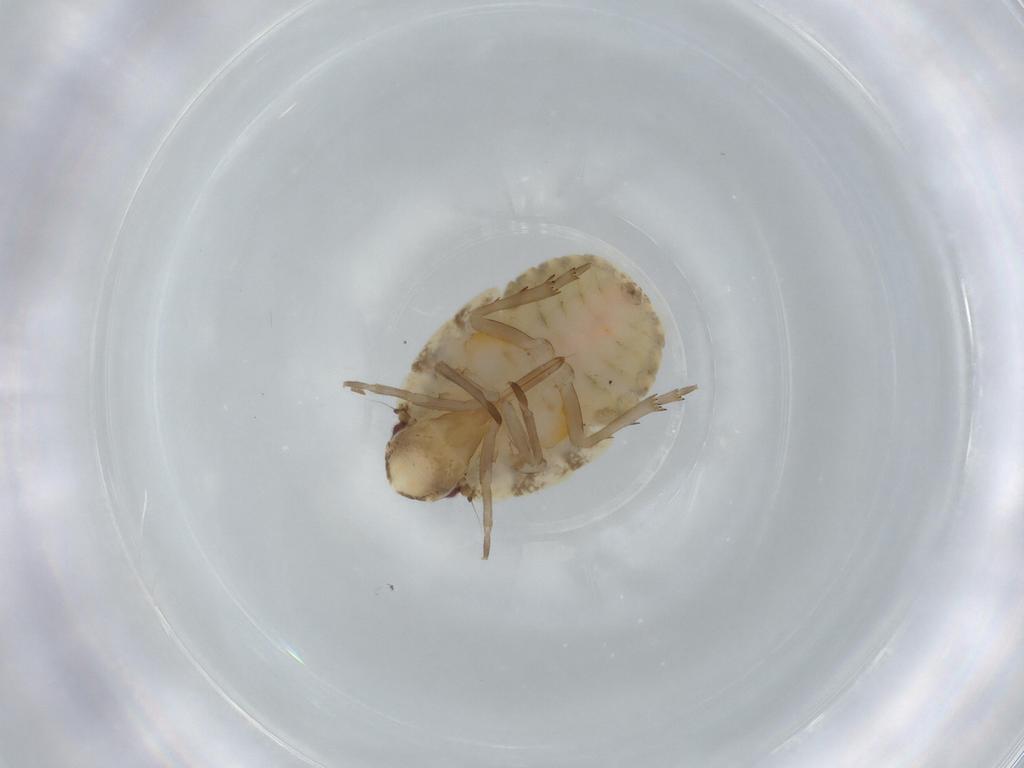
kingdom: Animalia
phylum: Arthropoda
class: Insecta
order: Hemiptera
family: Flatidae
